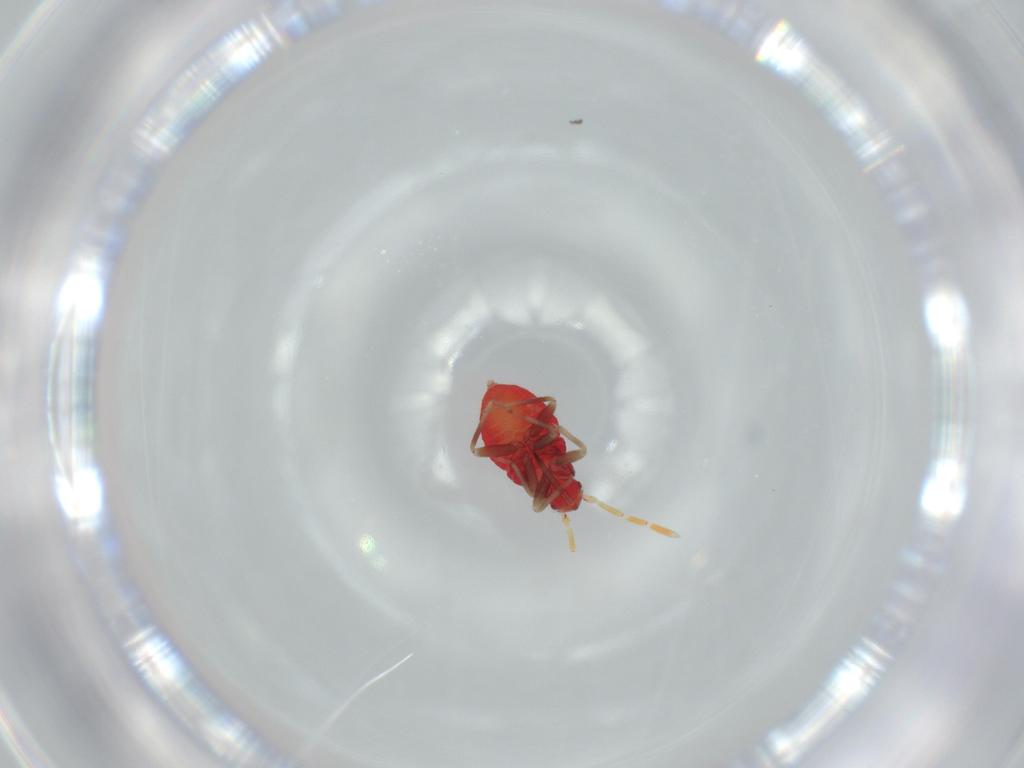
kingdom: Animalia
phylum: Arthropoda
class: Insecta
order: Hemiptera
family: Miridae
